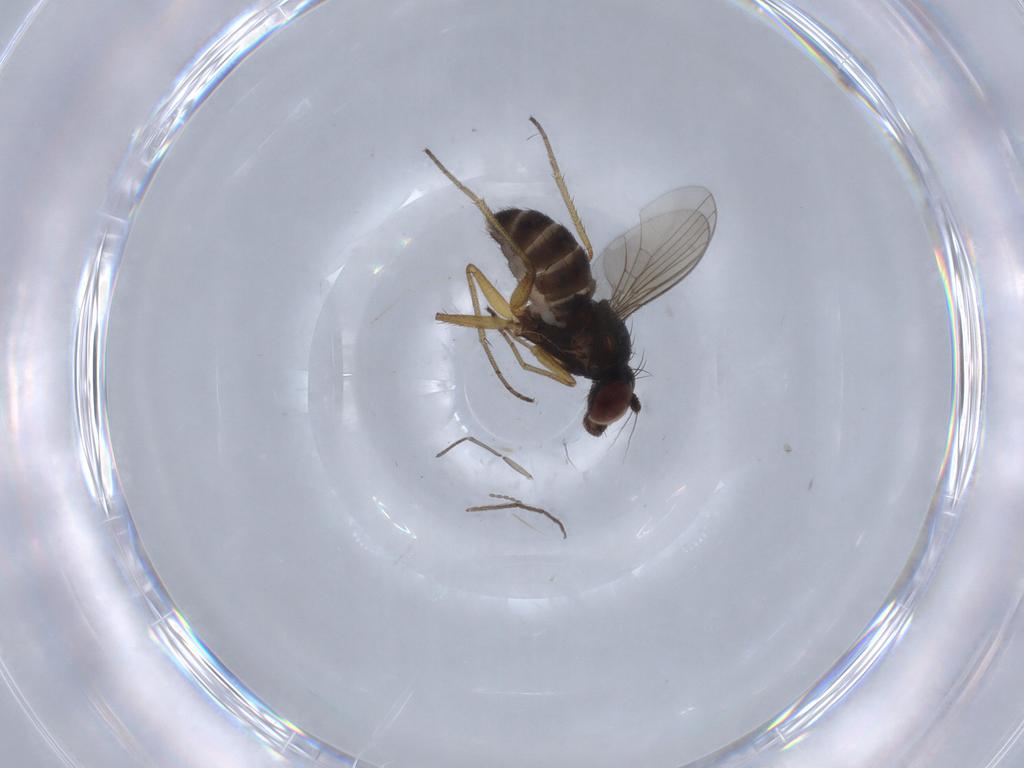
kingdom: Animalia
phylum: Arthropoda
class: Insecta
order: Diptera
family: Dolichopodidae
